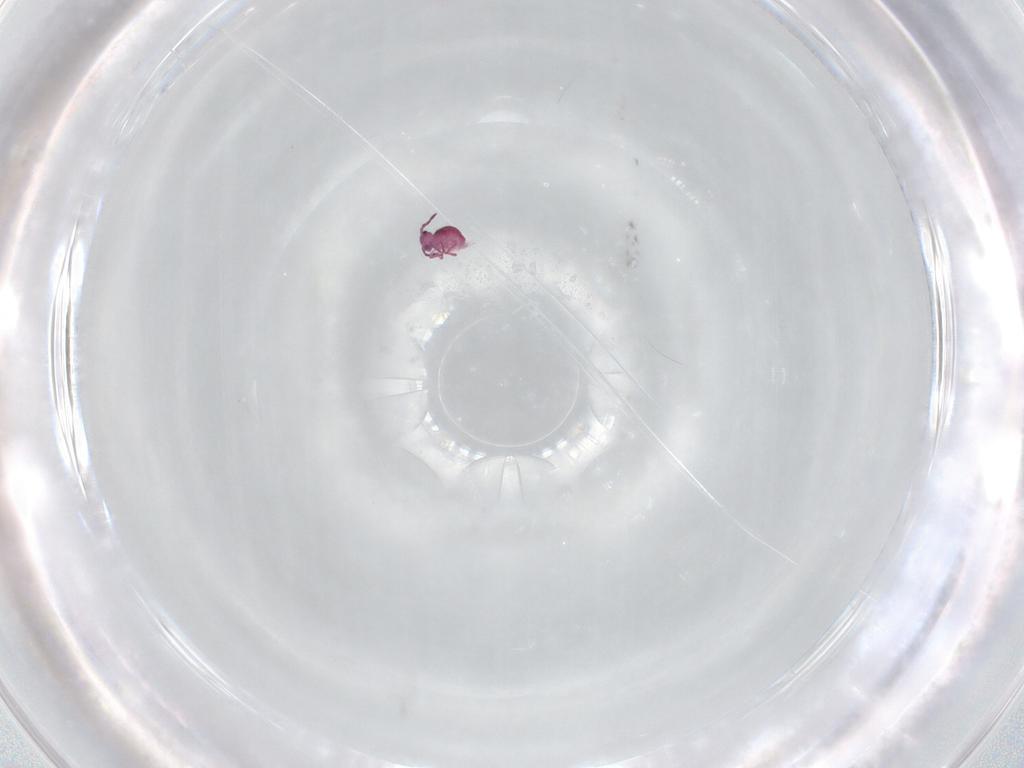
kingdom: Animalia
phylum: Arthropoda
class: Collembola
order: Symphypleona
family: Sminthurididae
